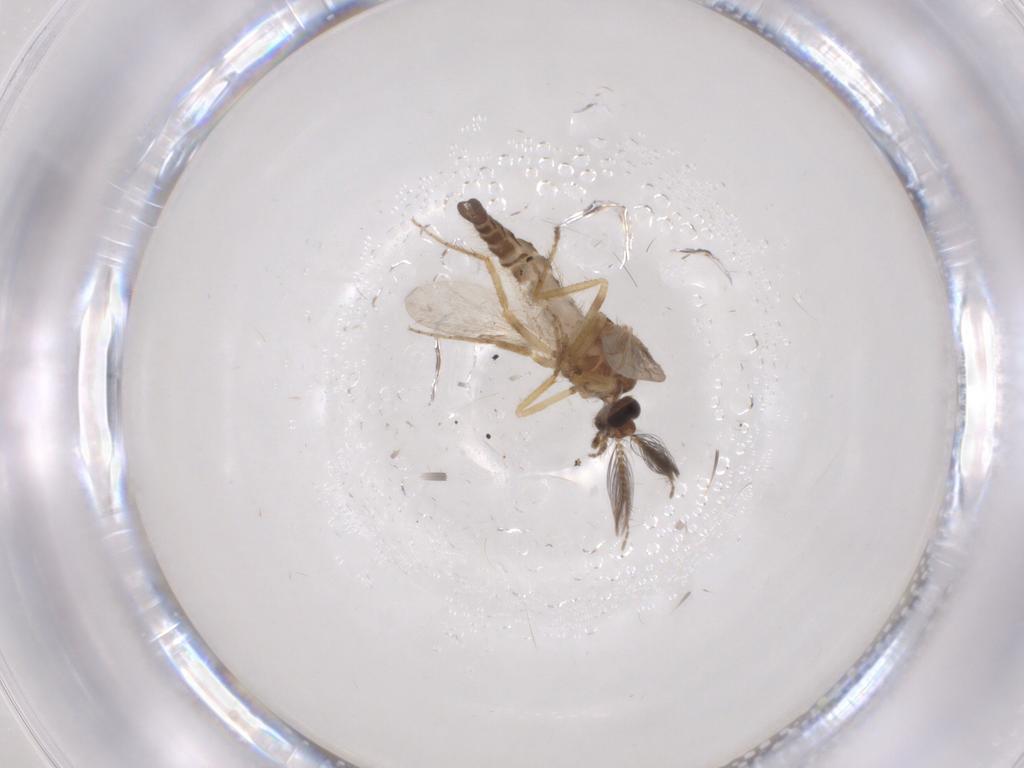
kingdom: Animalia
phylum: Arthropoda
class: Insecta
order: Diptera
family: Ceratopogonidae
